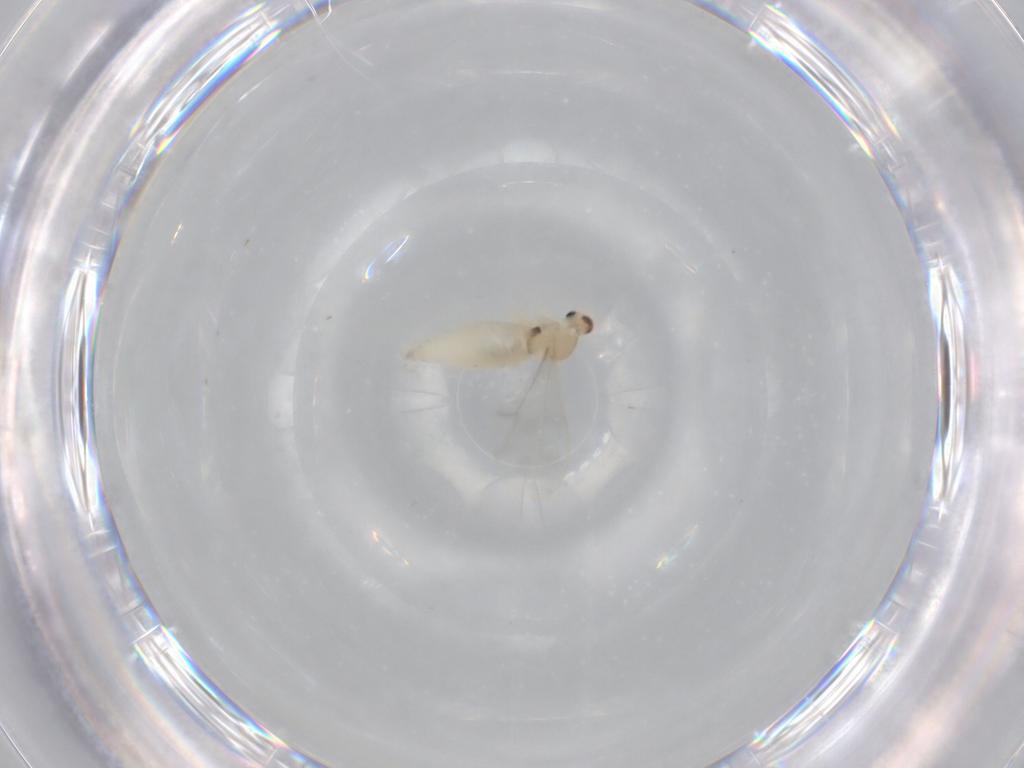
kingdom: Animalia
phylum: Arthropoda
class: Insecta
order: Diptera
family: Cecidomyiidae
